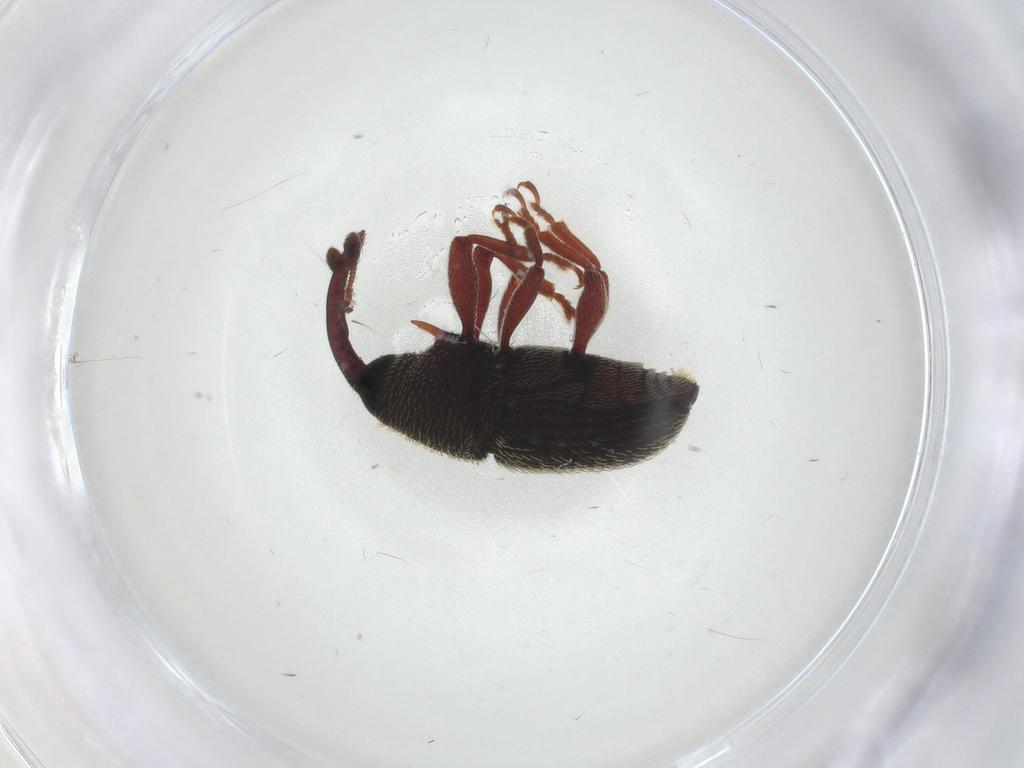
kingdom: Animalia
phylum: Arthropoda
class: Insecta
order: Coleoptera
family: Curculionidae
